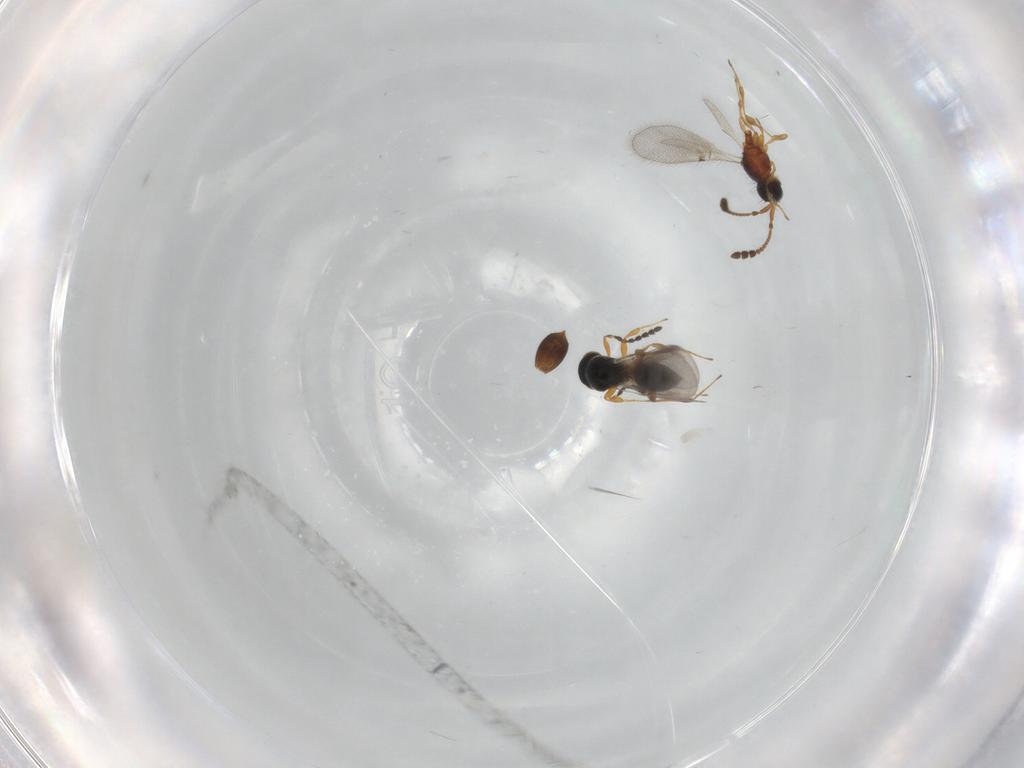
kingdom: Animalia
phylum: Arthropoda
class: Insecta
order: Hymenoptera
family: Platygastridae
